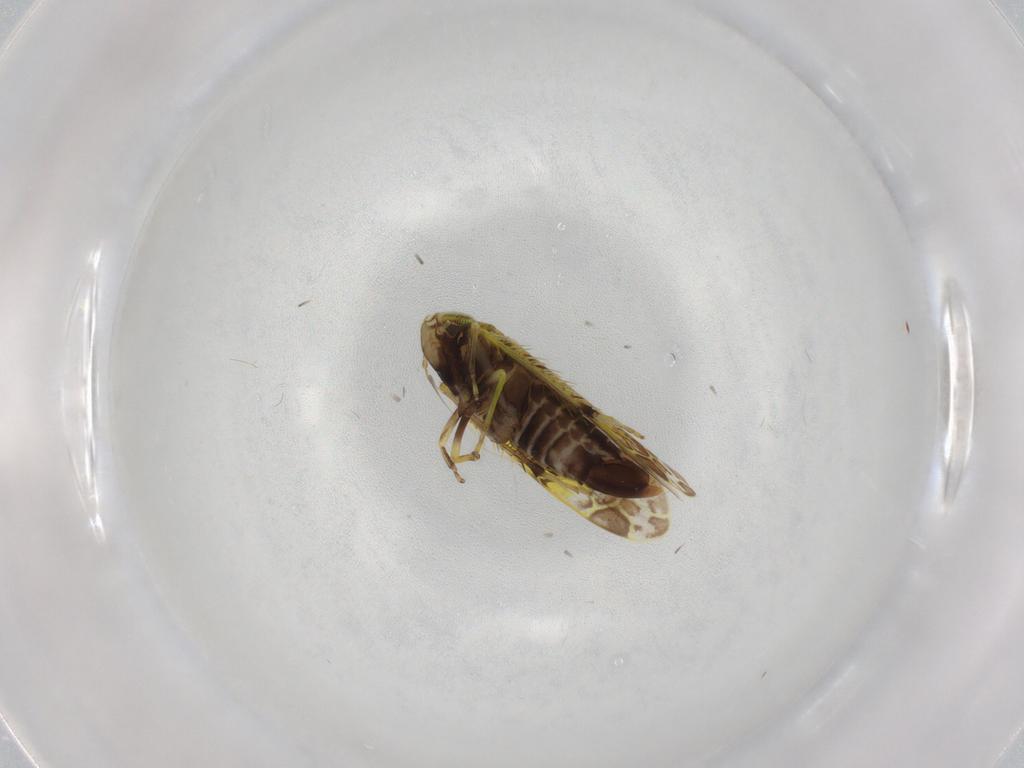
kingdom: Animalia
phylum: Arthropoda
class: Insecta
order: Hemiptera
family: Cicadellidae
